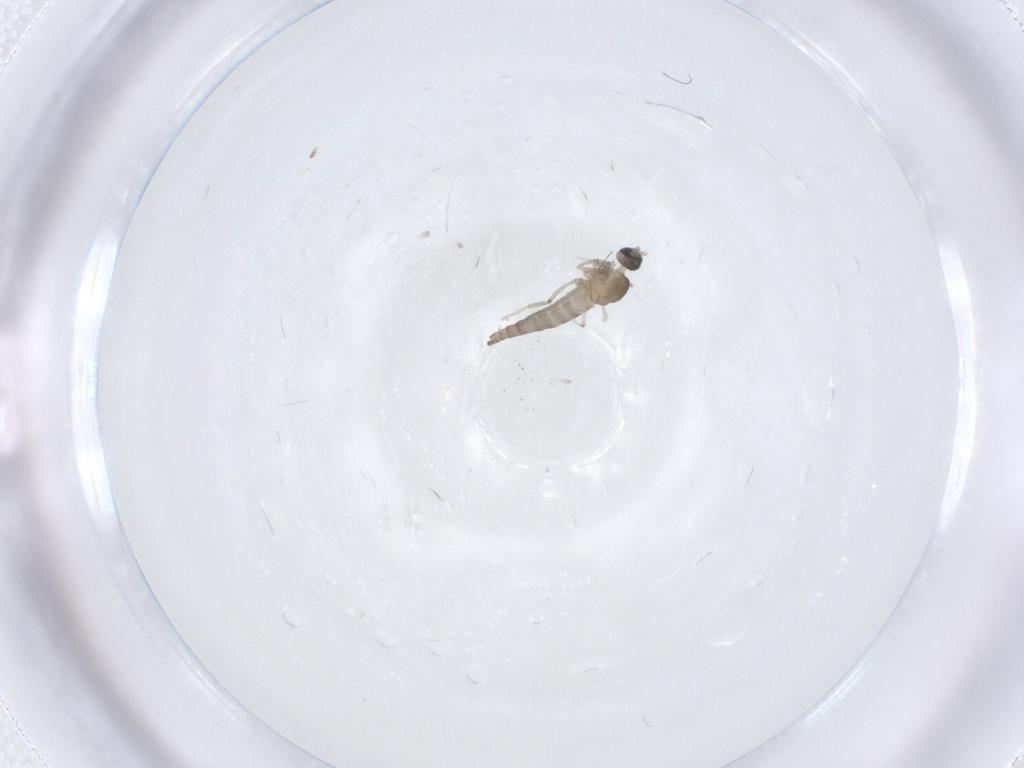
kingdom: Animalia
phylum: Arthropoda
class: Insecta
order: Diptera
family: Cecidomyiidae
